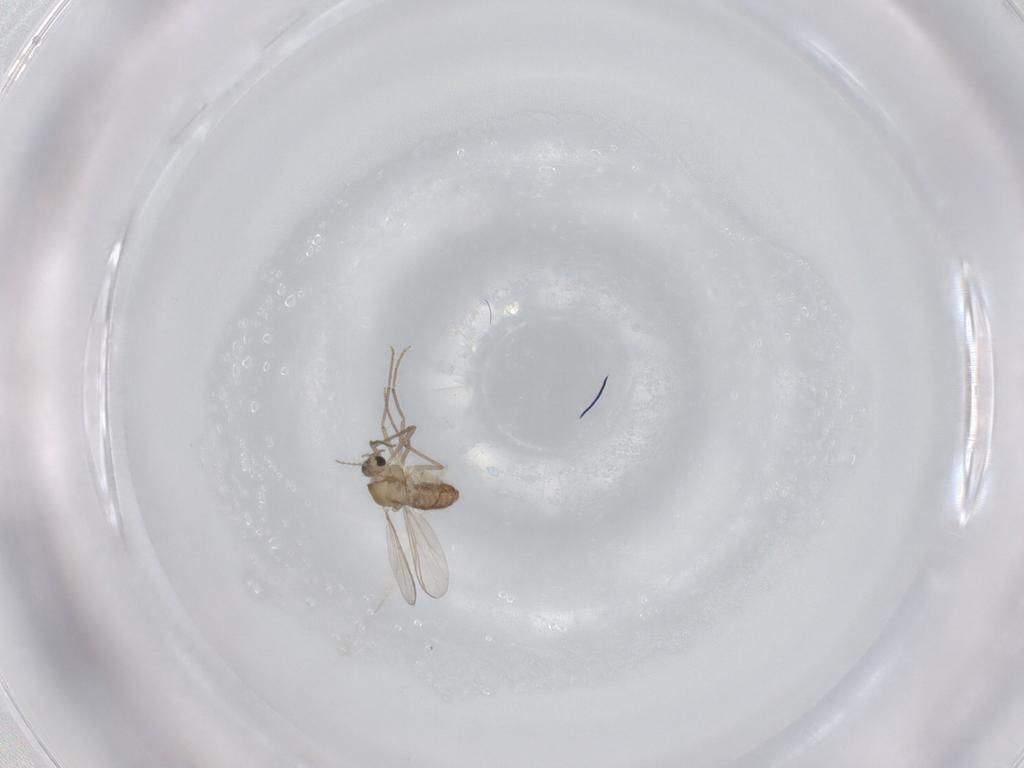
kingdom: Animalia
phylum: Arthropoda
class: Insecta
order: Diptera
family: Chironomidae
